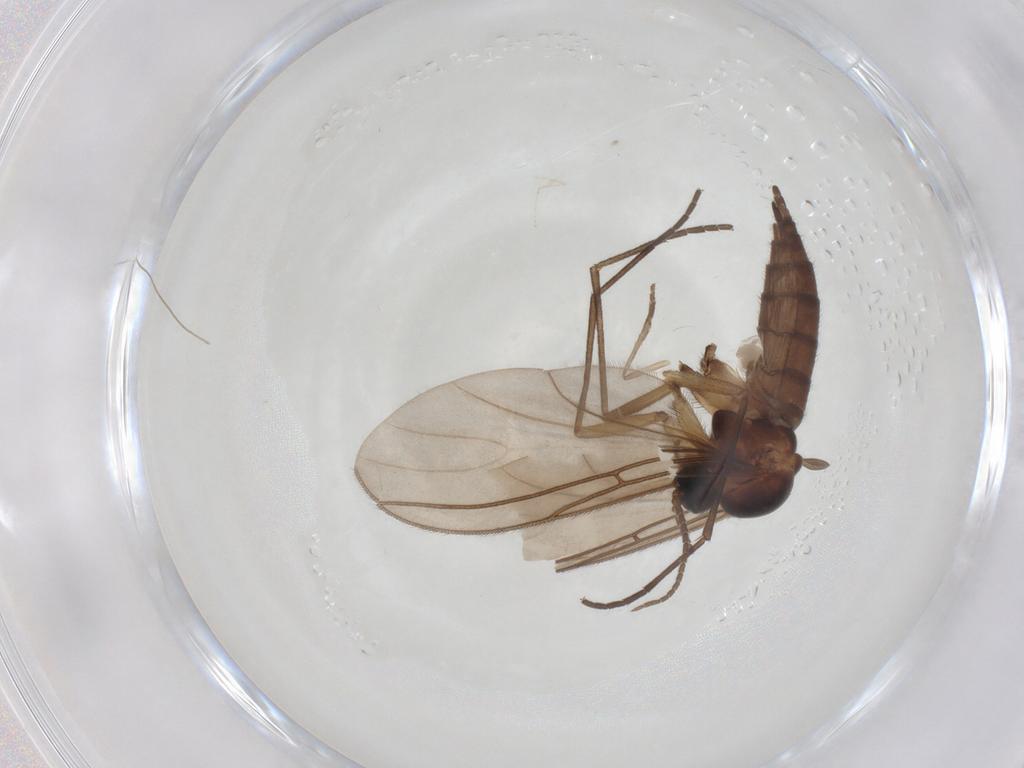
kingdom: Animalia
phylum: Arthropoda
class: Insecta
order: Diptera
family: Sciaridae
